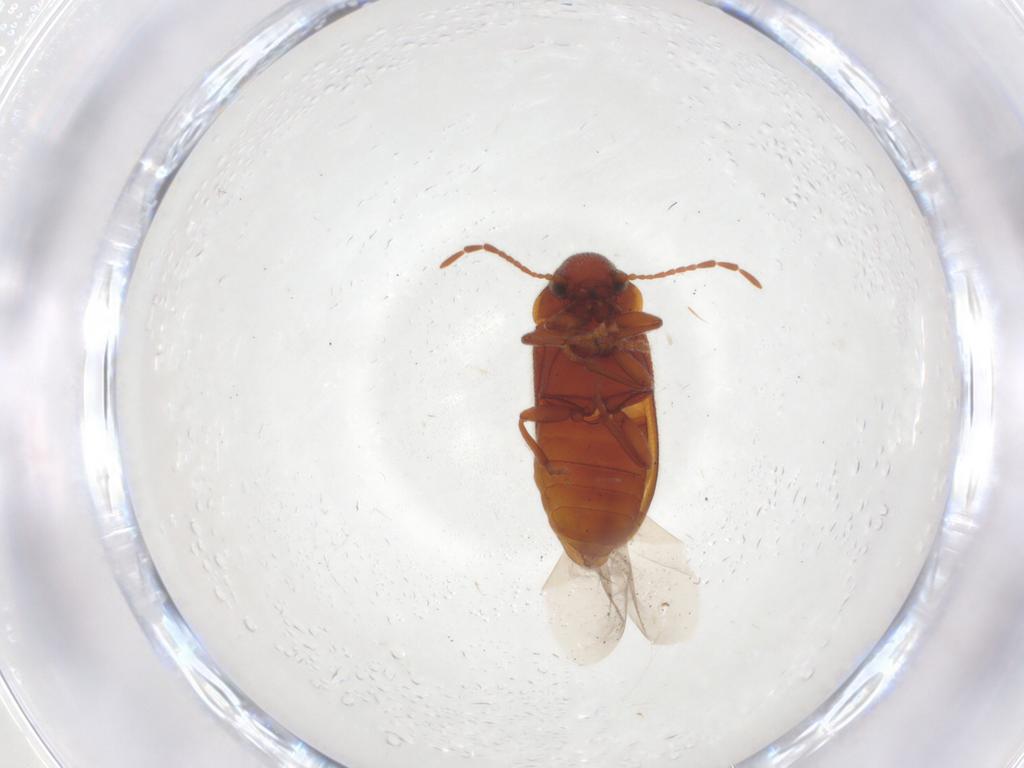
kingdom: Animalia
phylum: Arthropoda
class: Insecta
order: Coleoptera
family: Ptinidae
